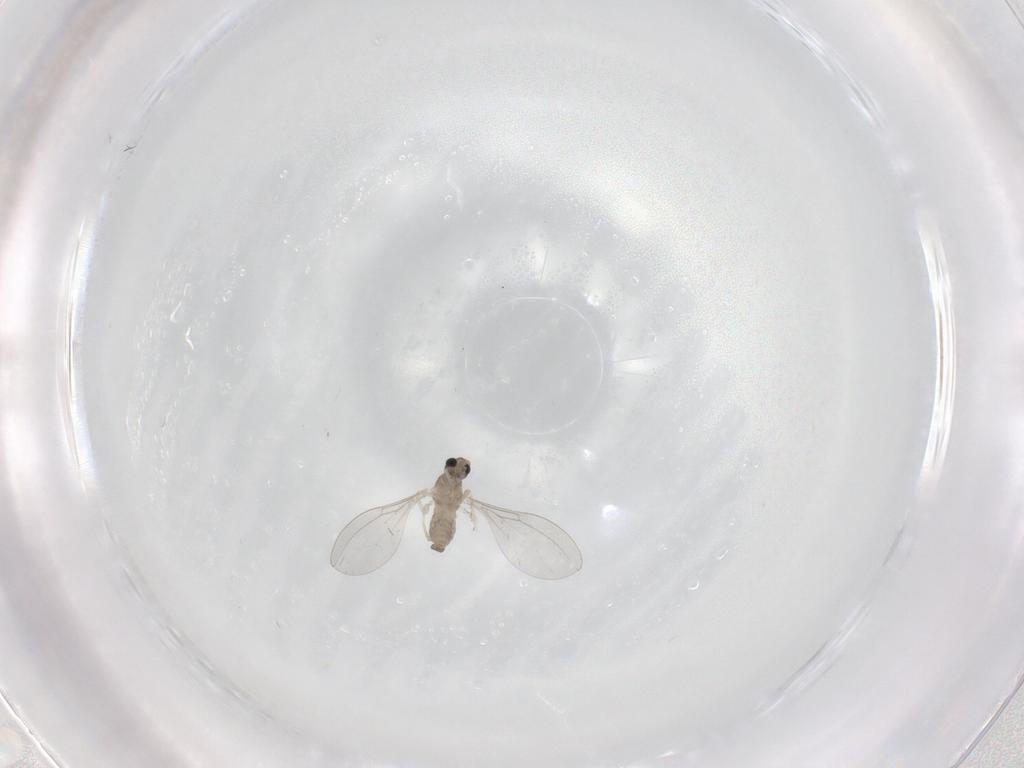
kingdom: Animalia
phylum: Arthropoda
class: Insecta
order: Diptera
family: Cecidomyiidae
